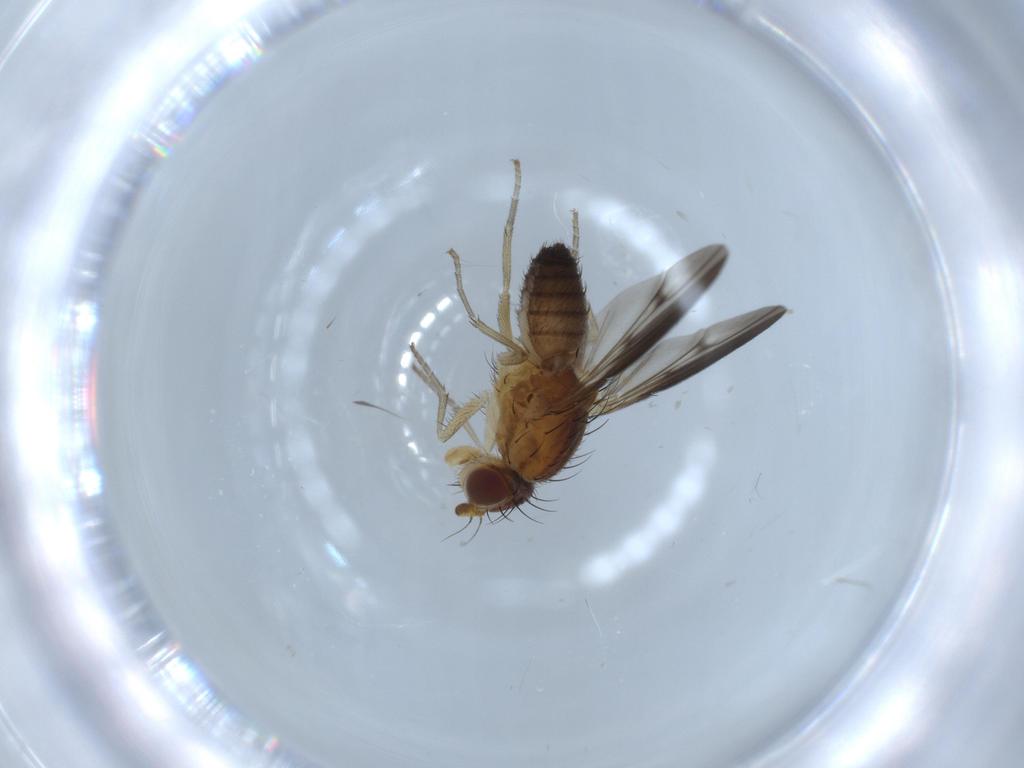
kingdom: Animalia
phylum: Arthropoda
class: Insecta
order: Diptera
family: Heleomyzidae
